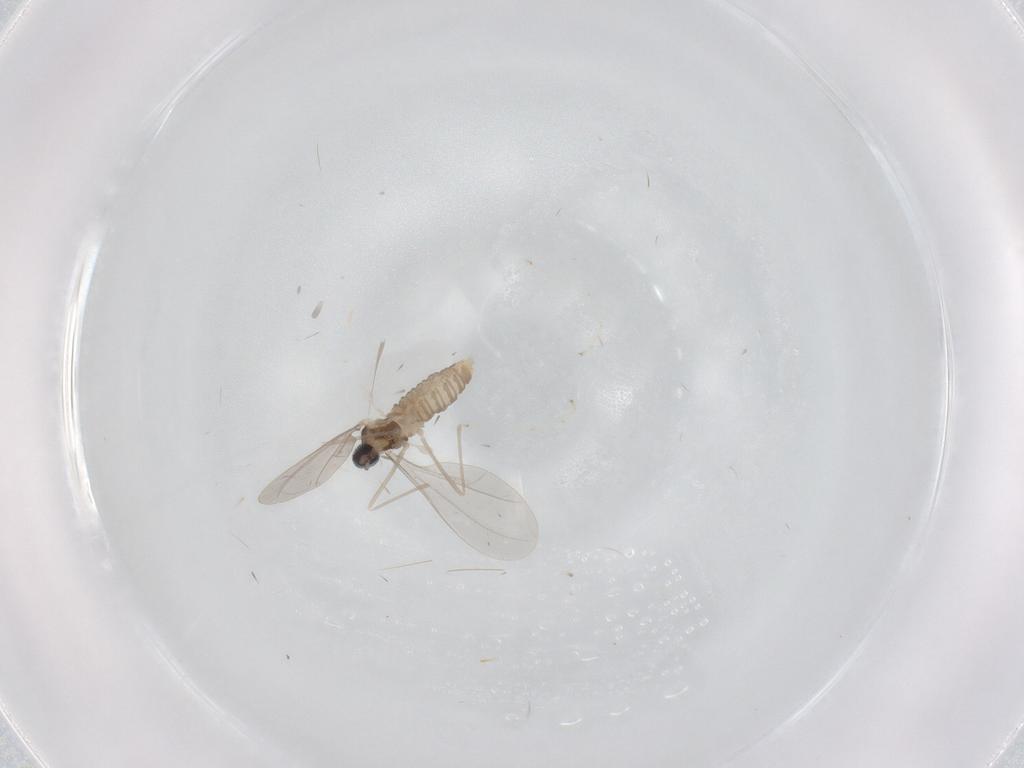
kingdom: Animalia
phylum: Arthropoda
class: Insecta
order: Diptera
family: Cecidomyiidae
